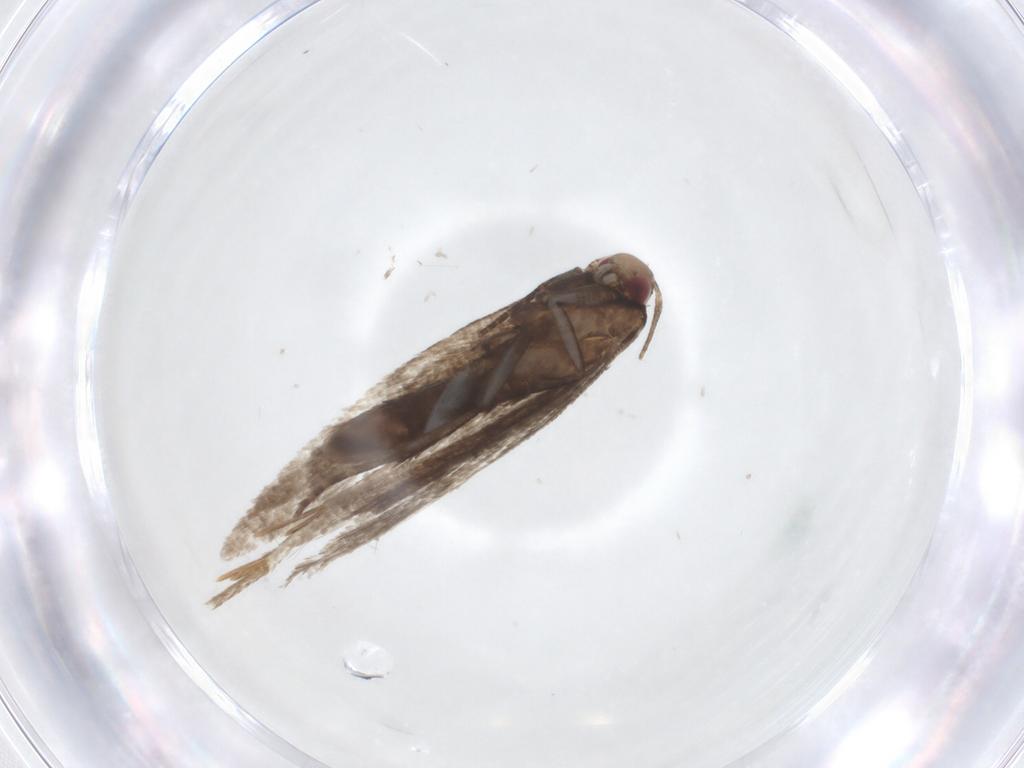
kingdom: Animalia
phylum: Arthropoda
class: Insecta
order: Lepidoptera
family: Gelechiidae
